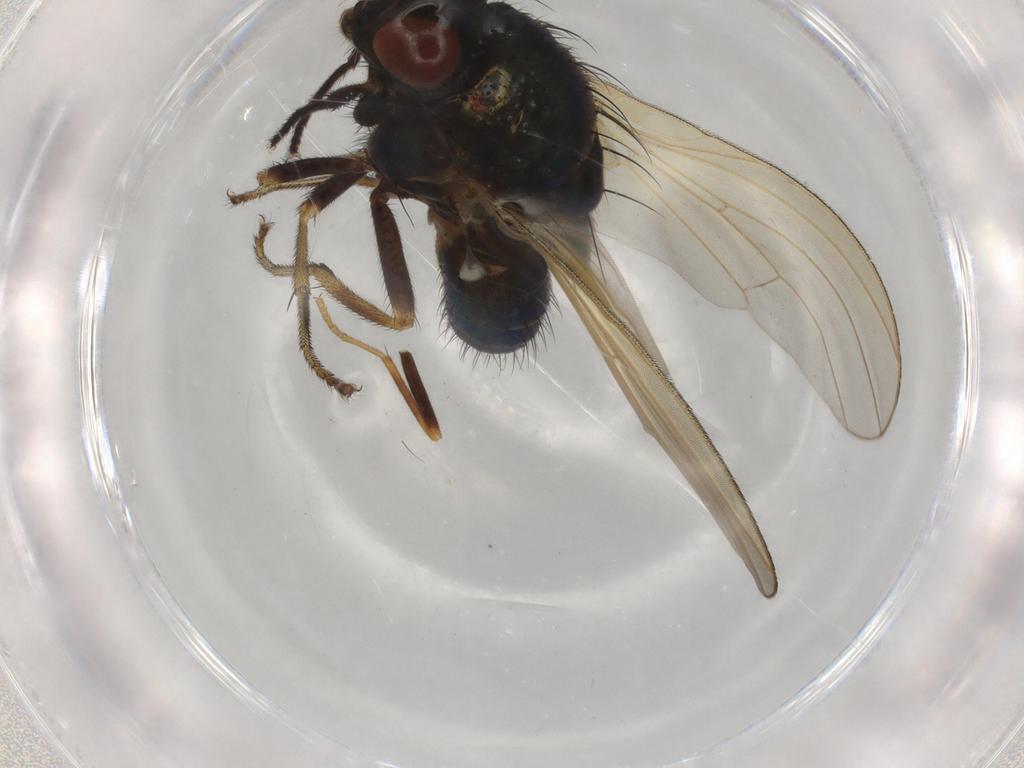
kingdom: Animalia
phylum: Arthropoda
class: Insecta
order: Diptera
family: Lauxaniidae
